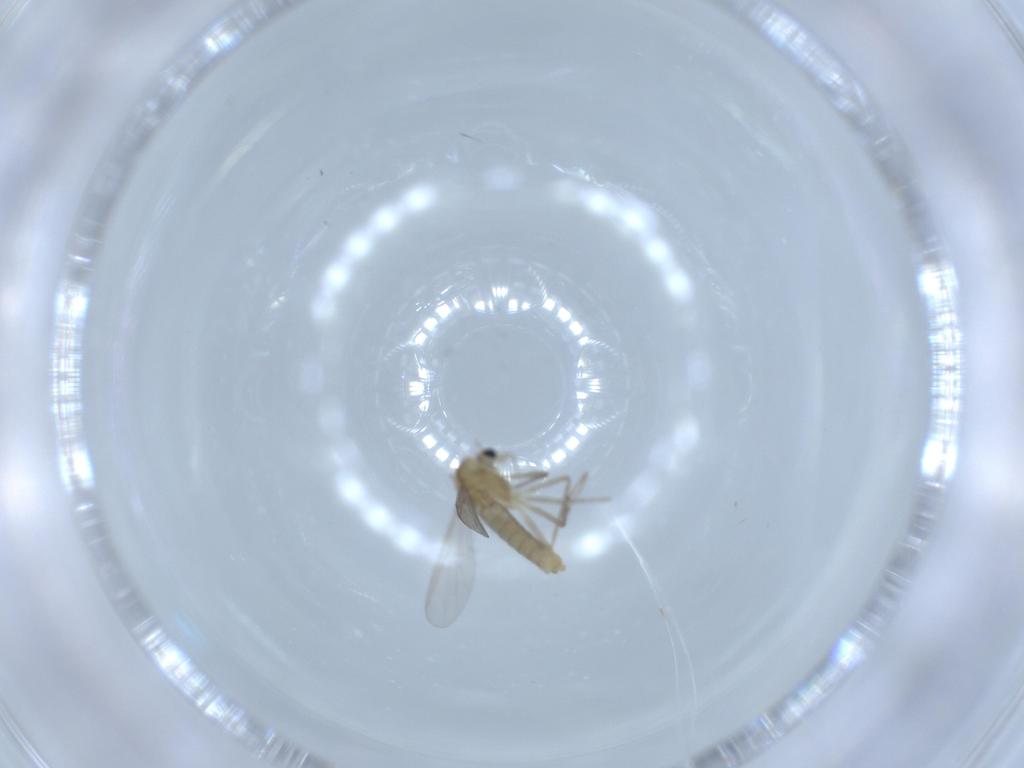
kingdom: Animalia
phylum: Arthropoda
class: Insecta
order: Diptera
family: Chironomidae
